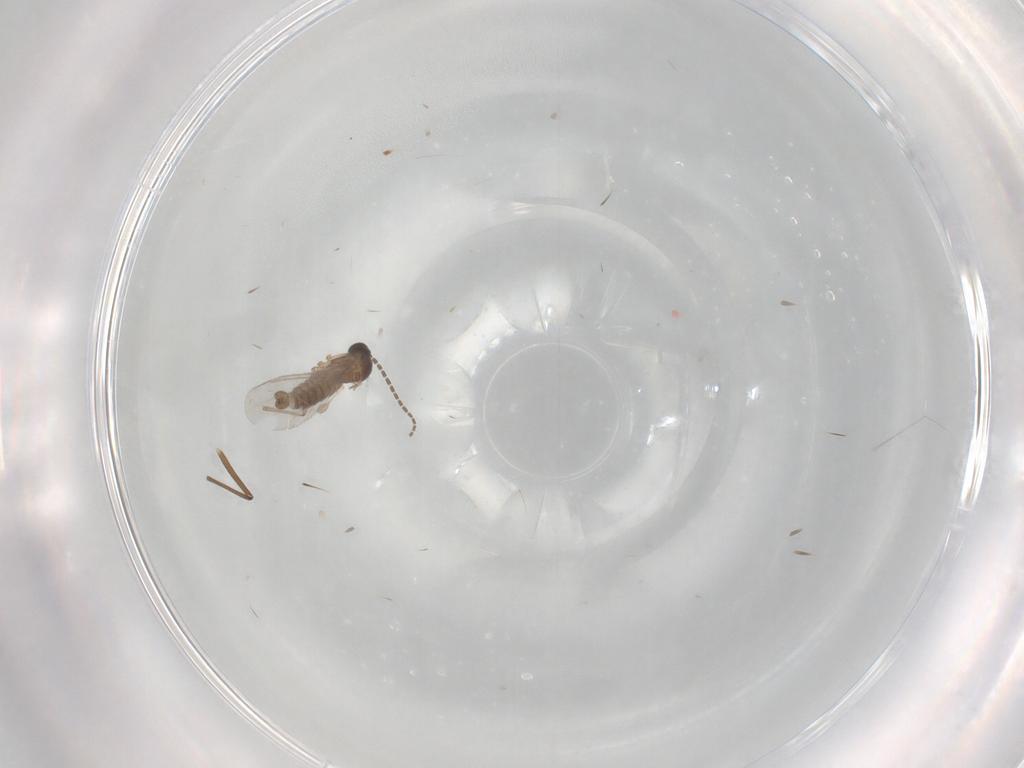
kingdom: Animalia
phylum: Arthropoda
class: Insecta
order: Diptera
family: Sciaridae
